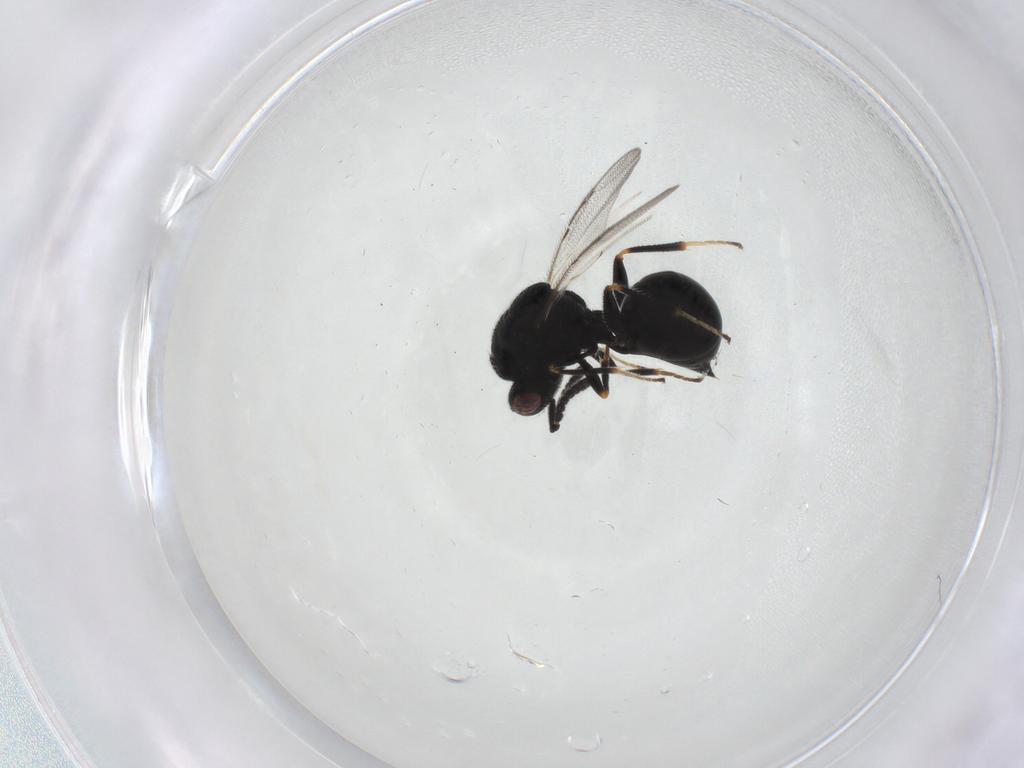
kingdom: Animalia
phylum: Arthropoda
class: Insecta
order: Hymenoptera
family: Eurytomidae
